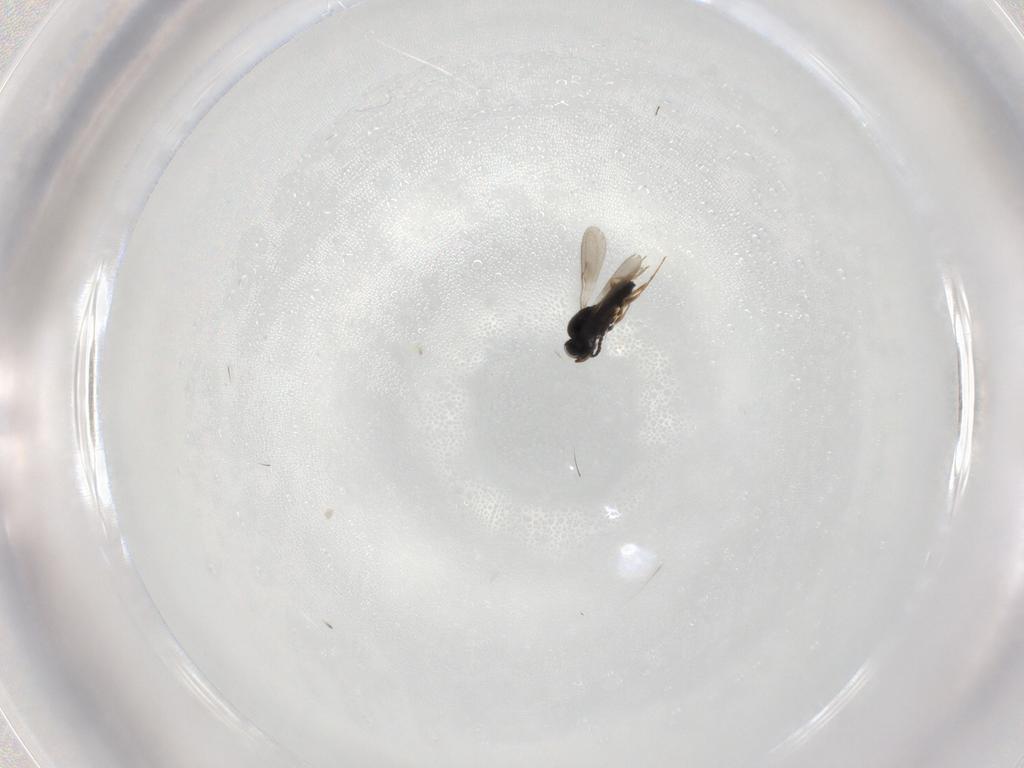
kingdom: Animalia
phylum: Arthropoda
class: Insecta
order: Hymenoptera
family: Scelionidae
